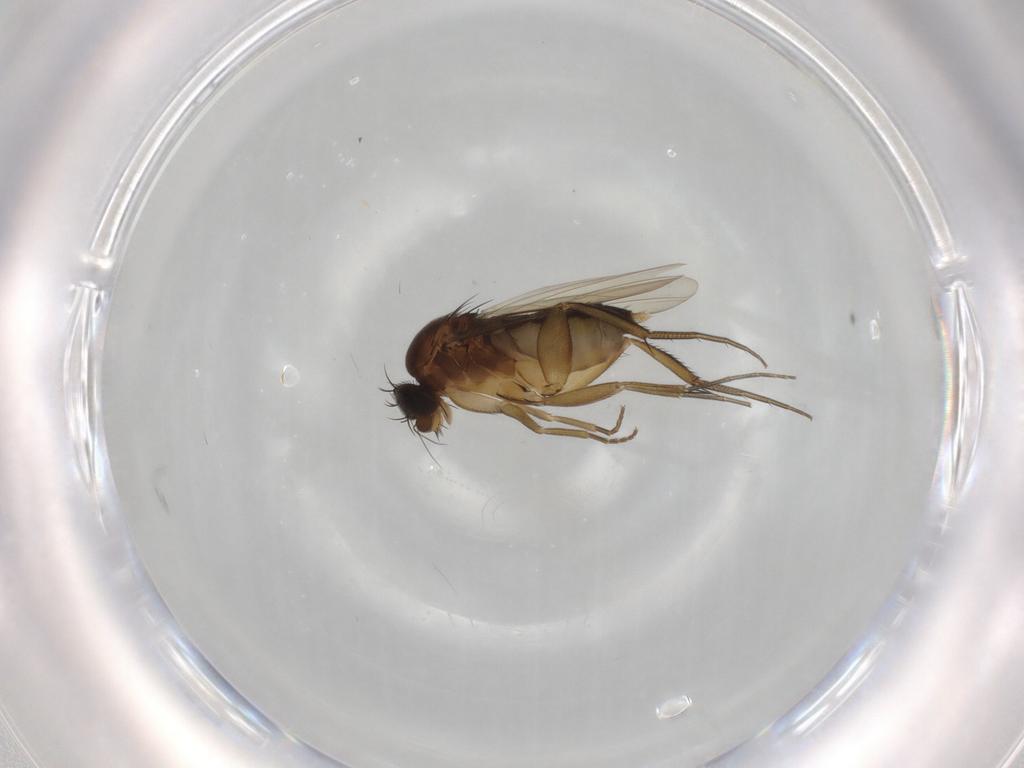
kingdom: Animalia
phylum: Arthropoda
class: Insecta
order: Diptera
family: Phoridae
